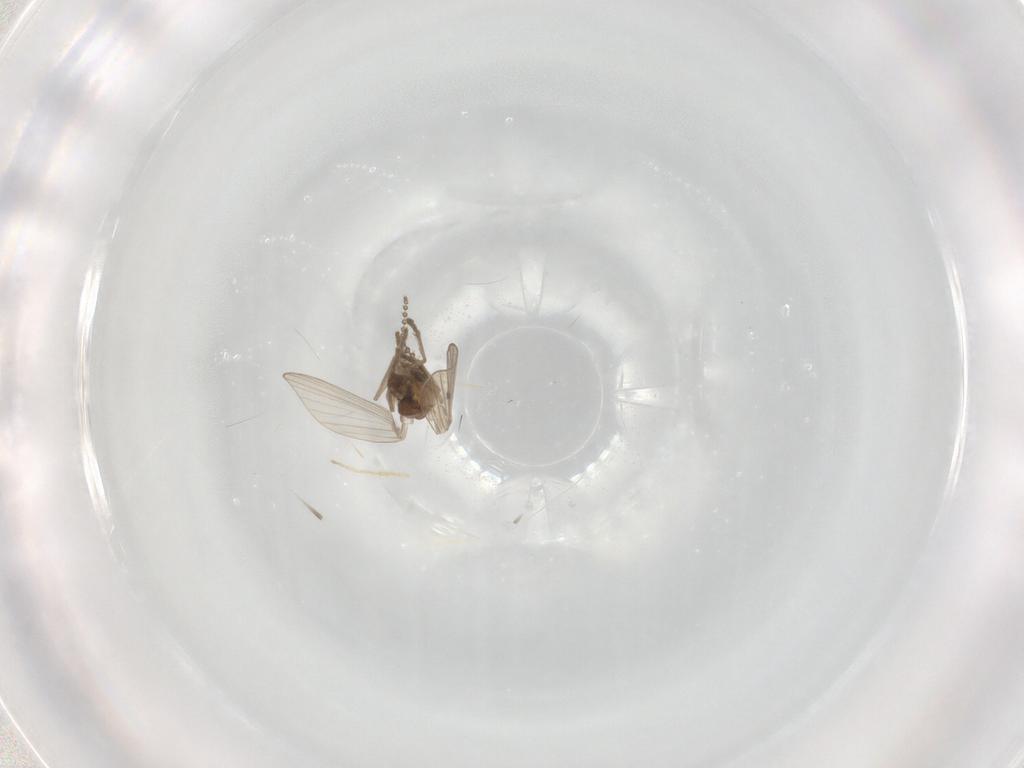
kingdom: Animalia
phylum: Arthropoda
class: Insecta
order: Diptera
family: Psychodidae
